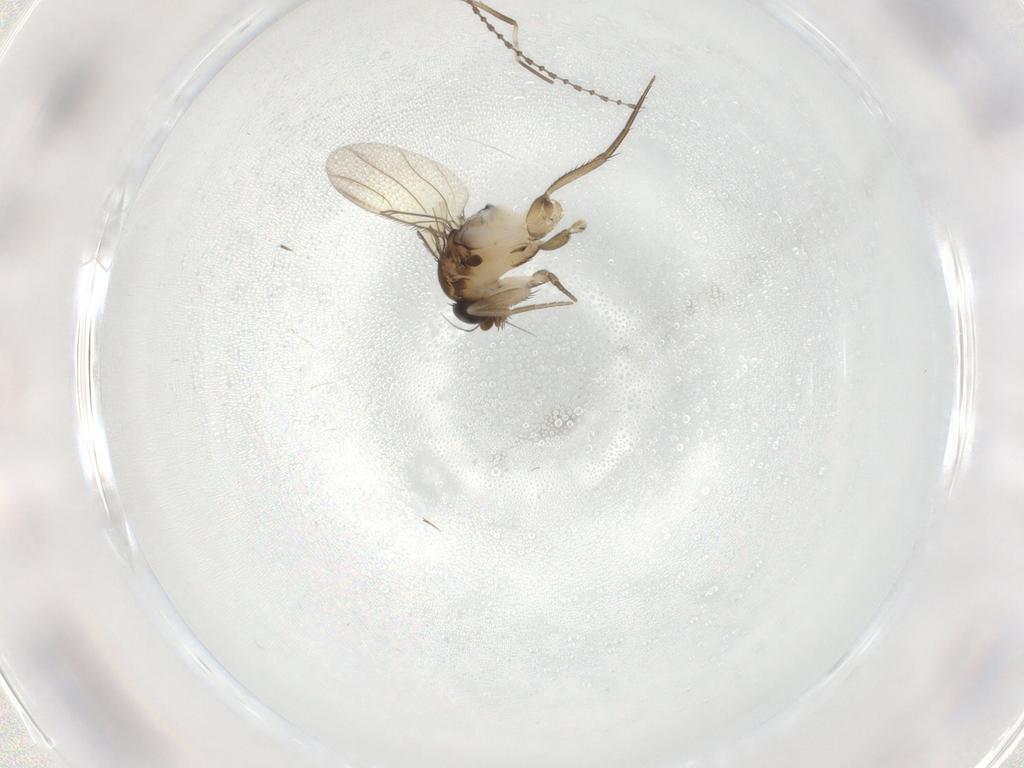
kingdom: Animalia
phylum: Arthropoda
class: Insecta
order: Diptera
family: Phoridae
